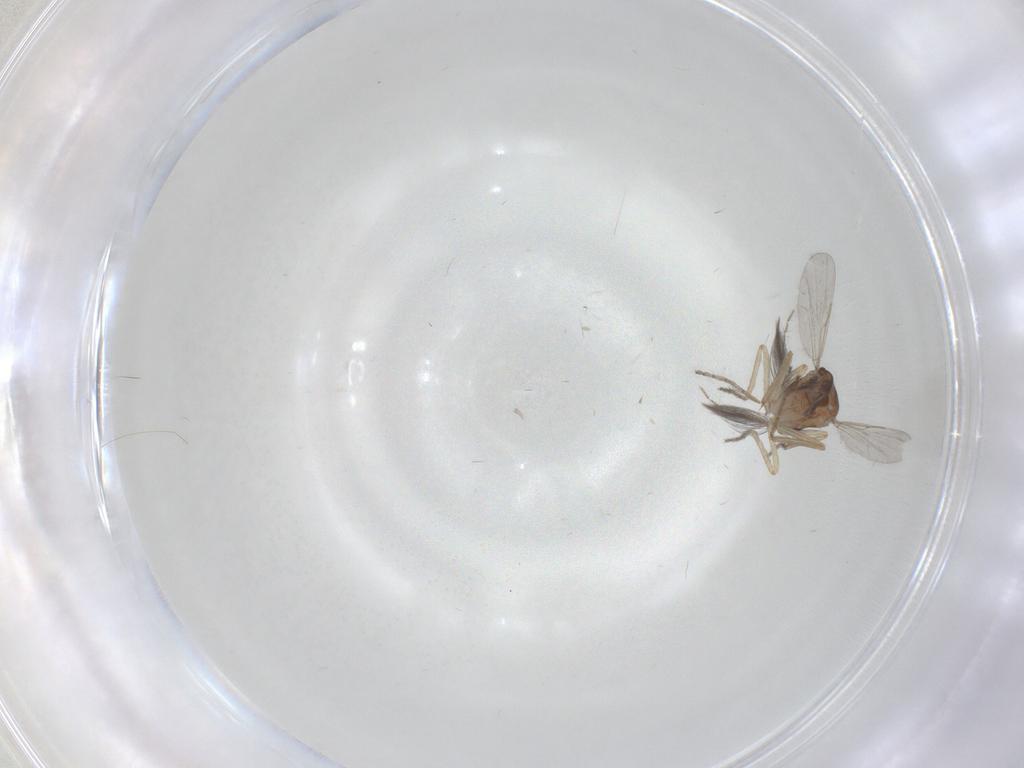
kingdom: Animalia
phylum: Arthropoda
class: Insecta
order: Diptera
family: Ceratopogonidae
